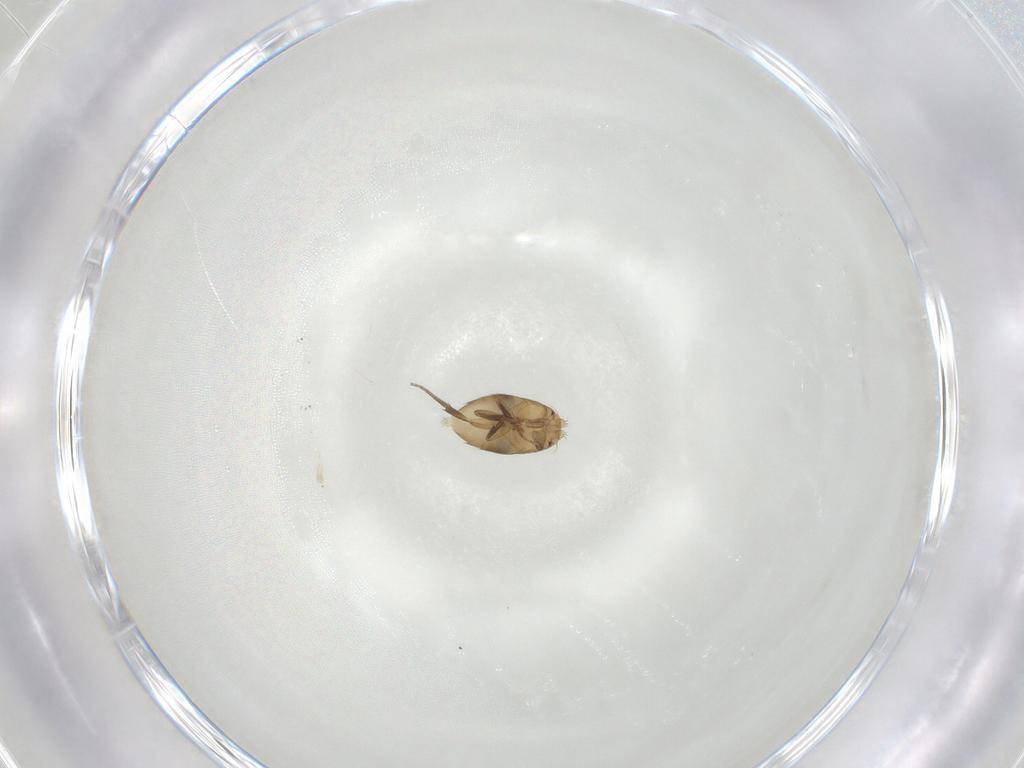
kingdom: Animalia
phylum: Arthropoda
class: Insecta
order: Diptera
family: Phoridae
